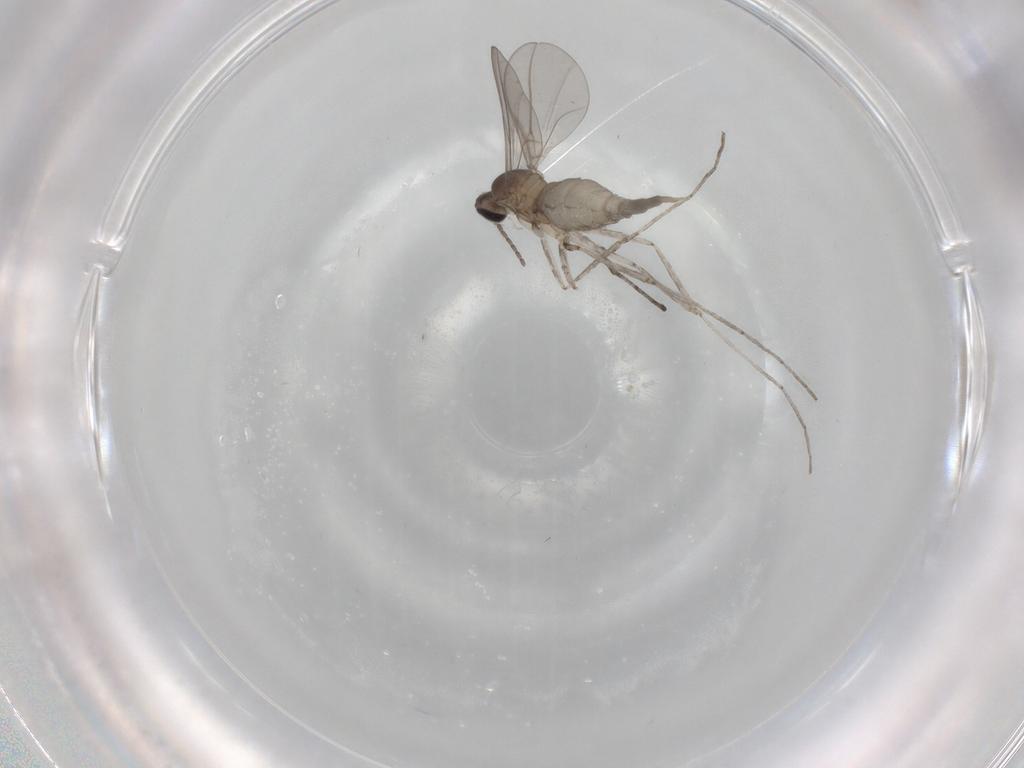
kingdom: Animalia
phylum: Arthropoda
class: Insecta
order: Diptera
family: Cecidomyiidae
